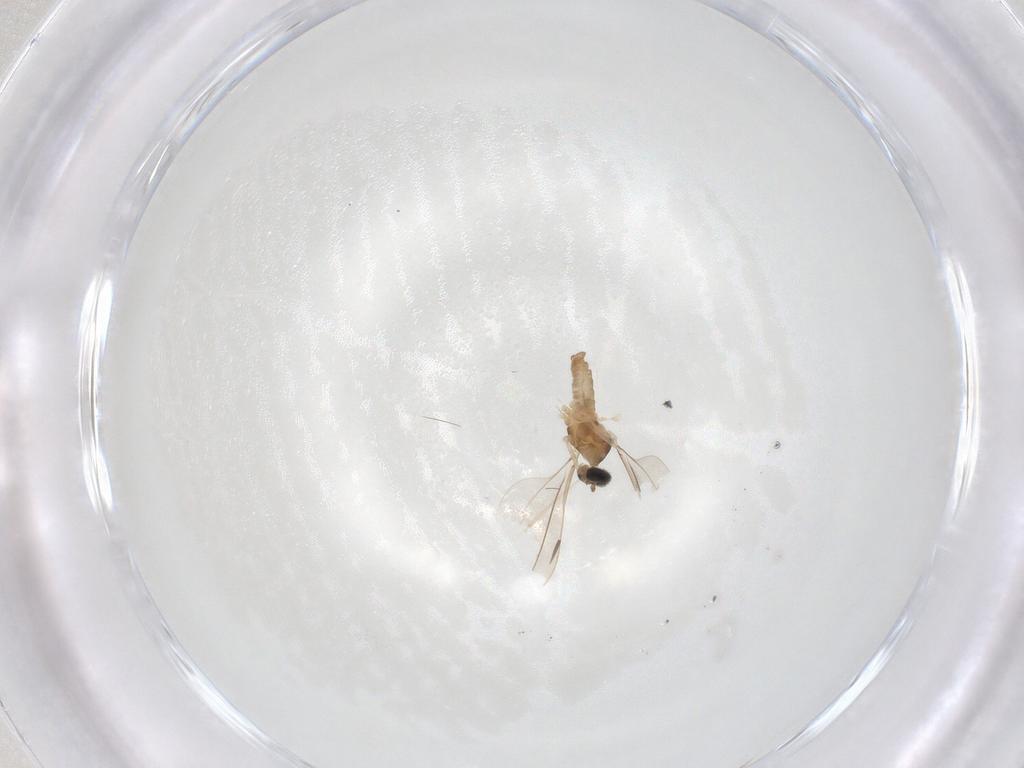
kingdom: Animalia
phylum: Arthropoda
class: Insecta
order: Diptera
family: Cecidomyiidae
